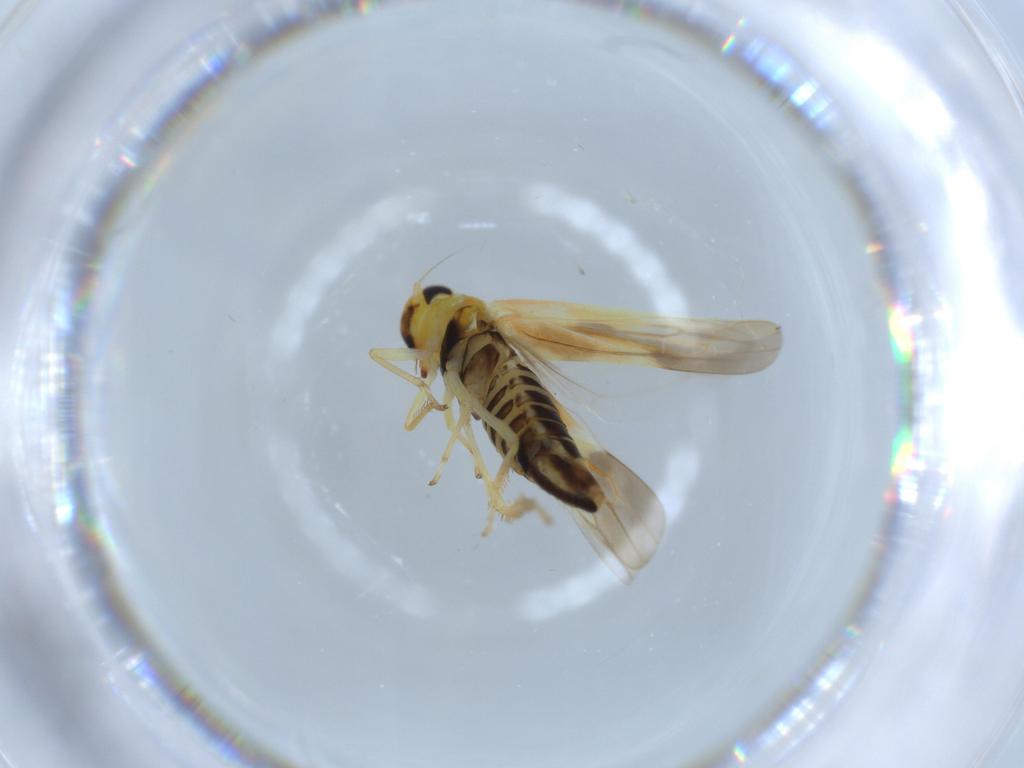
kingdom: Animalia
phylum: Arthropoda
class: Insecta
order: Hemiptera
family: Cicadellidae
